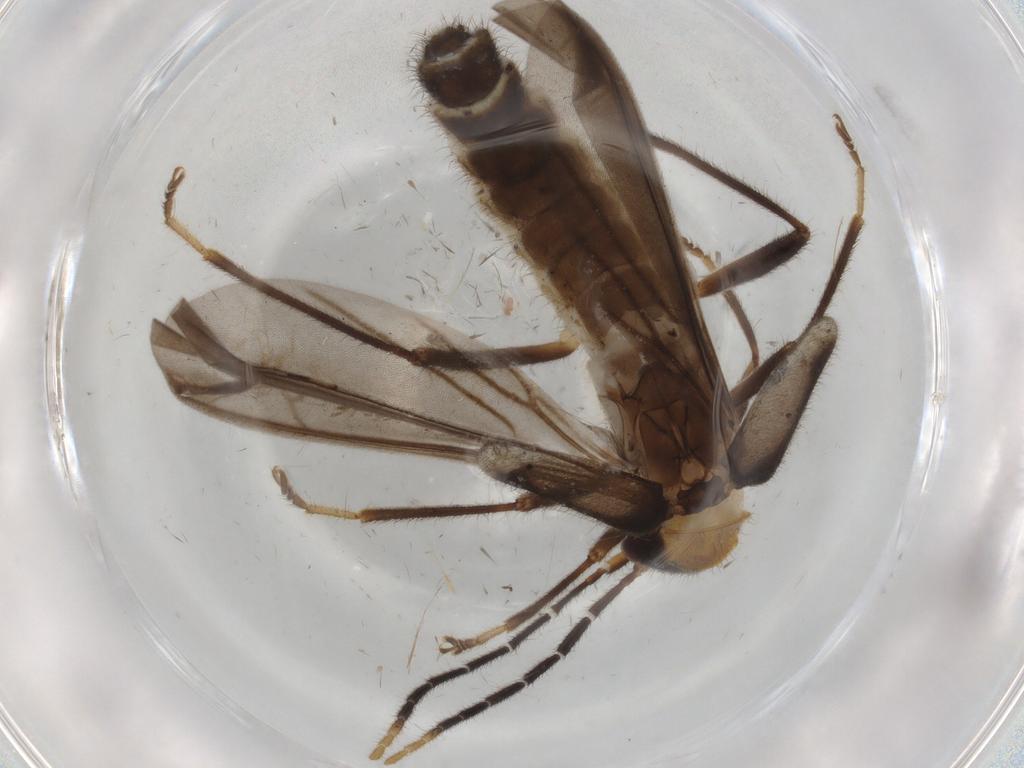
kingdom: Animalia
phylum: Arthropoda
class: Insecta
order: Coleoptera
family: Cantharidae
